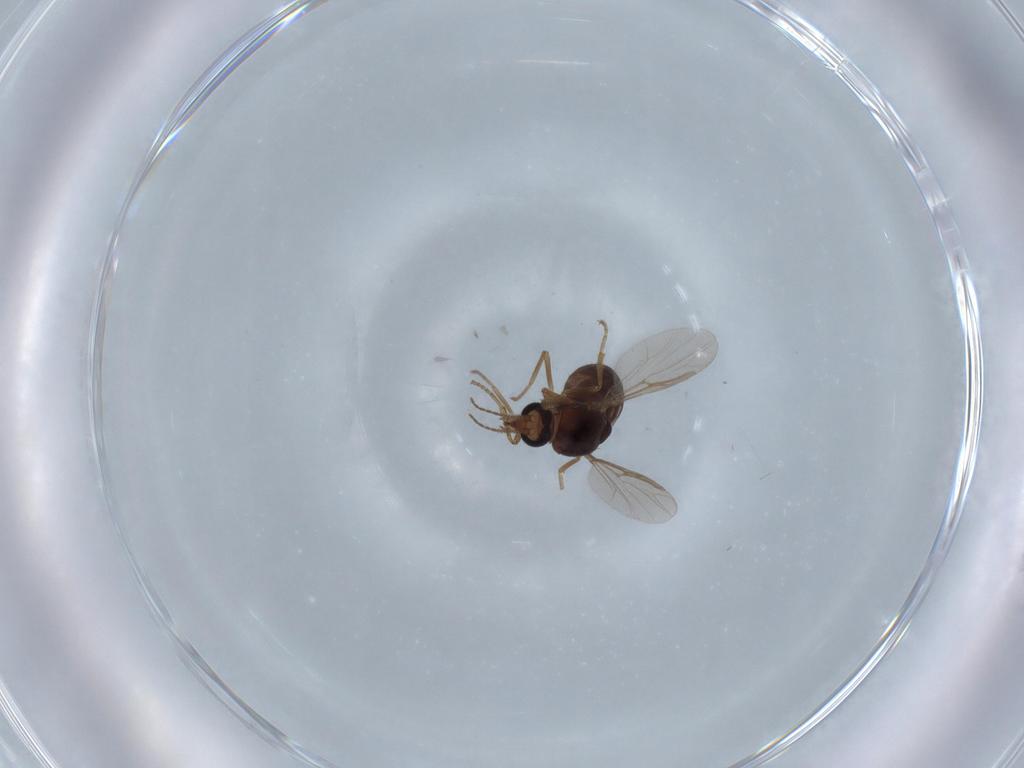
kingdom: Animalia
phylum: Arthropoda
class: Insecta
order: Diptera
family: Ceratopogonidae
